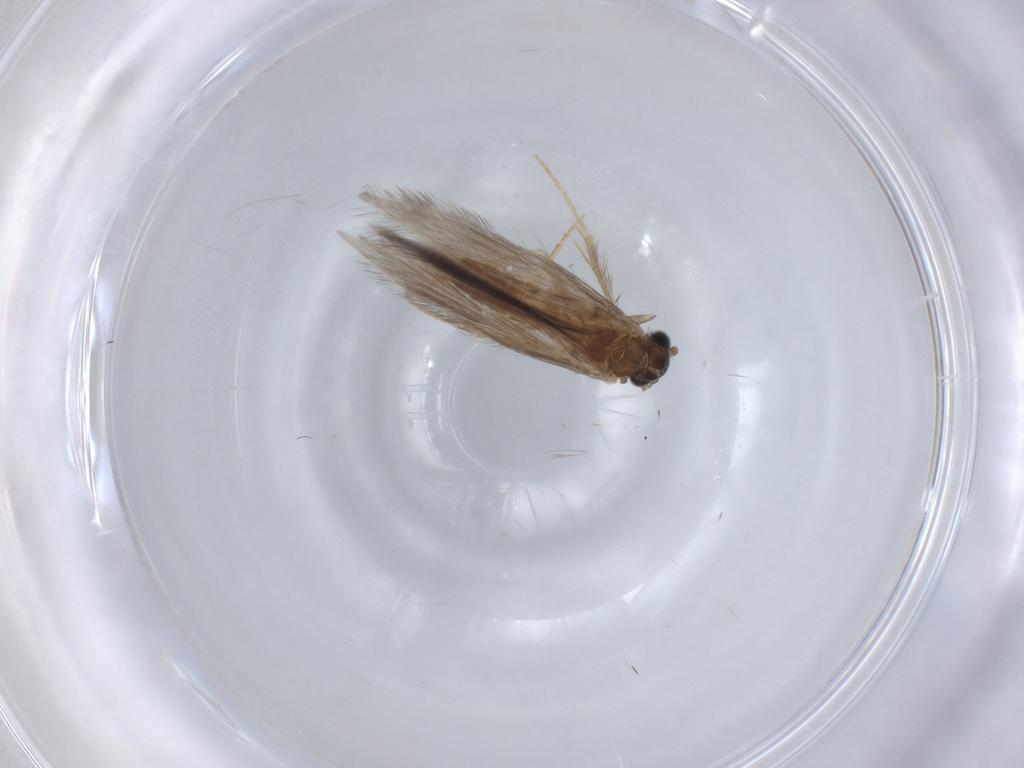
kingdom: Animalia
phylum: Arthropoda
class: Insecta
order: Trichoptera
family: Hydroptilidae
